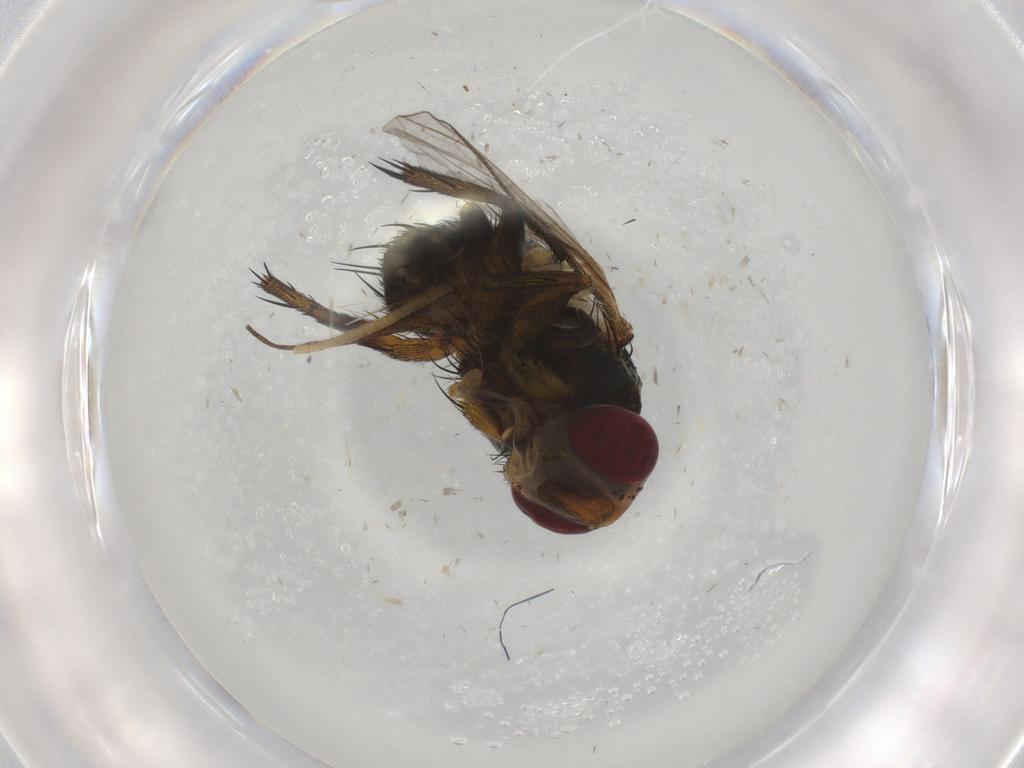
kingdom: Animalia
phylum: Arthropoda
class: Insecta
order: Diptera
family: Chironomidae
